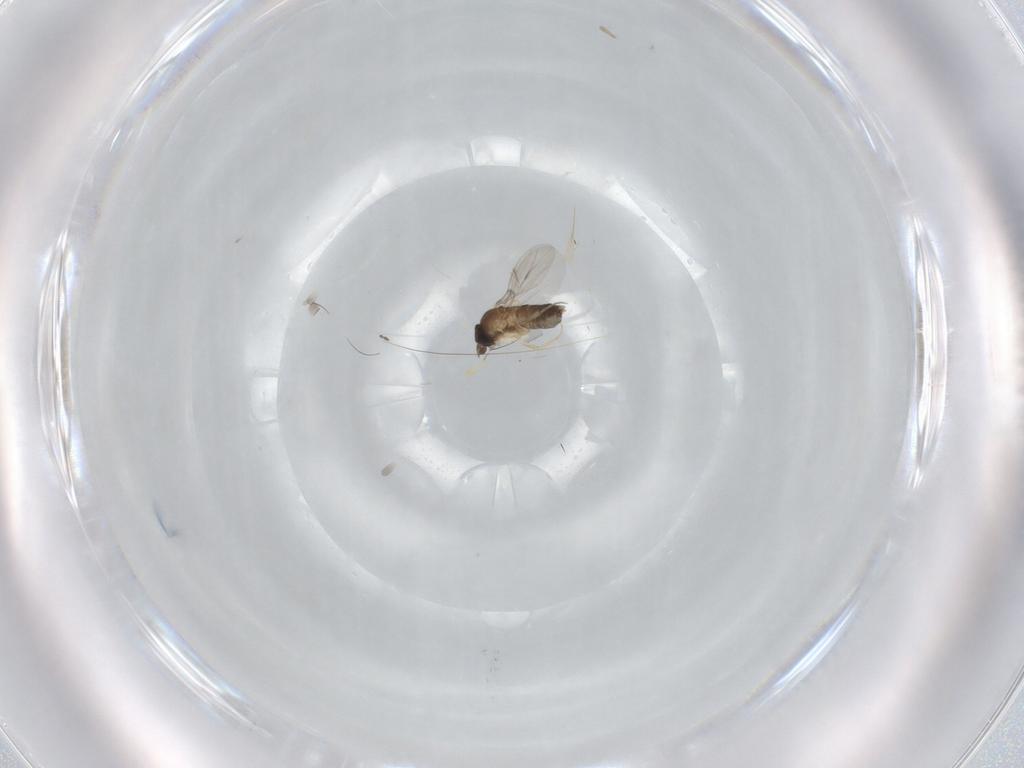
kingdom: Animalia
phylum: Arthropoda
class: Insecta
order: Diptera
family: Phoridae
